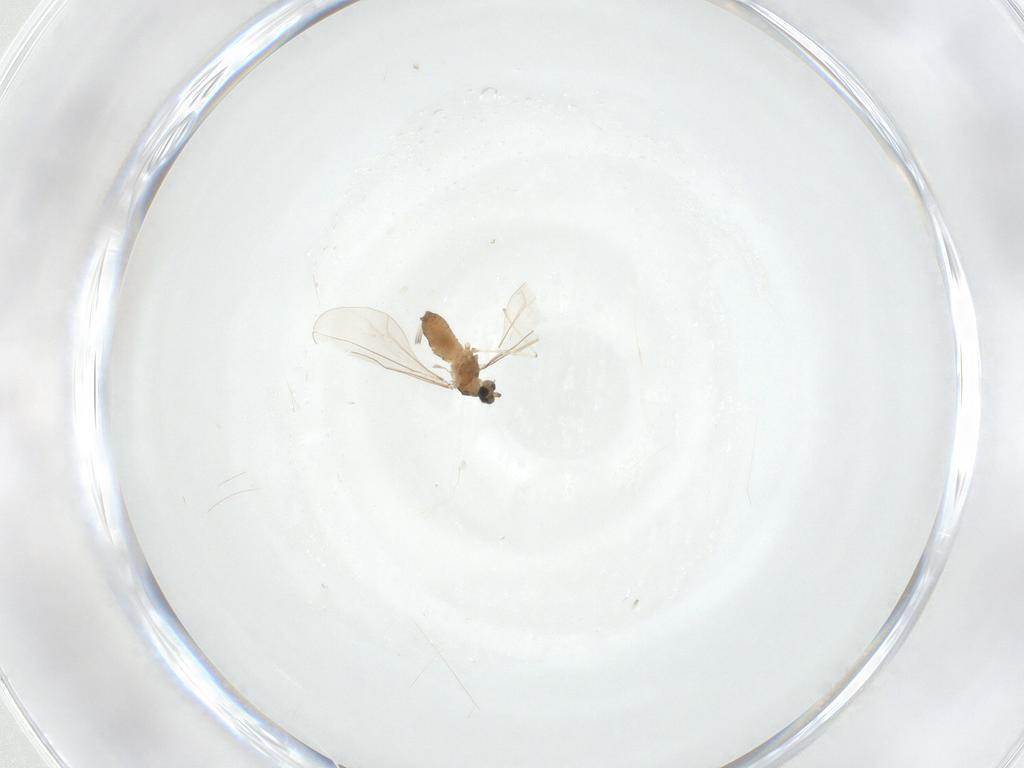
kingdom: Animalia
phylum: Arthropoda
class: Insecta
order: Diptera
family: Cecidomyiidae
